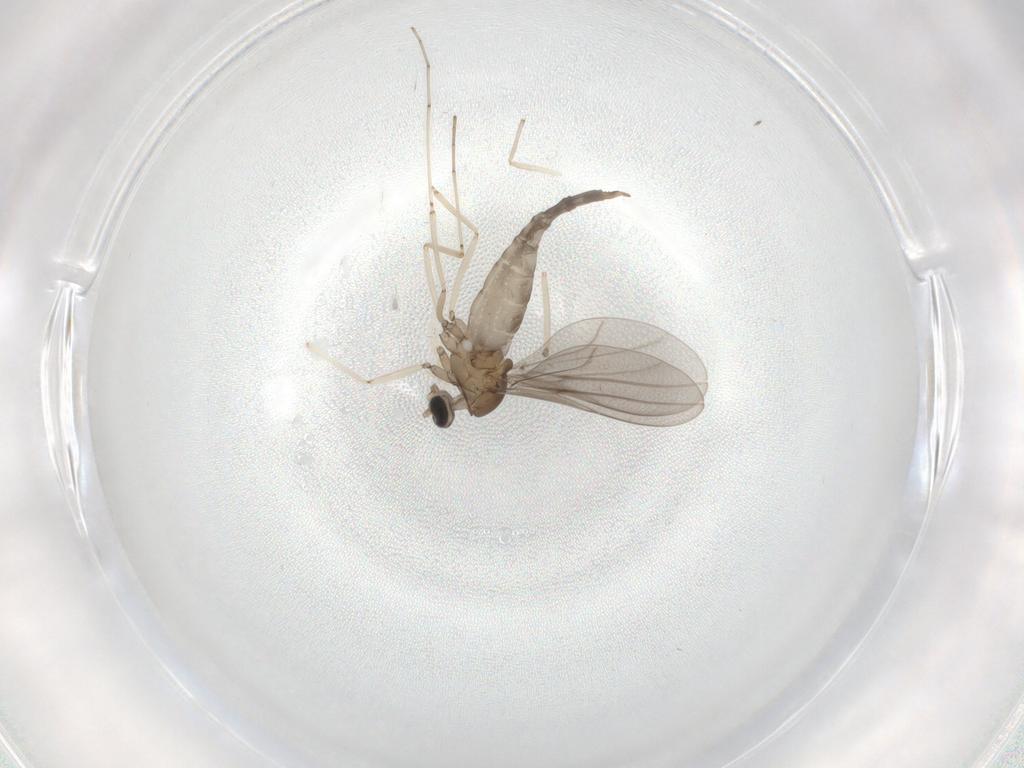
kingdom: Animalia
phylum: Arthropoda
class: Insecta
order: Diptera
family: Cecidomyiidae
